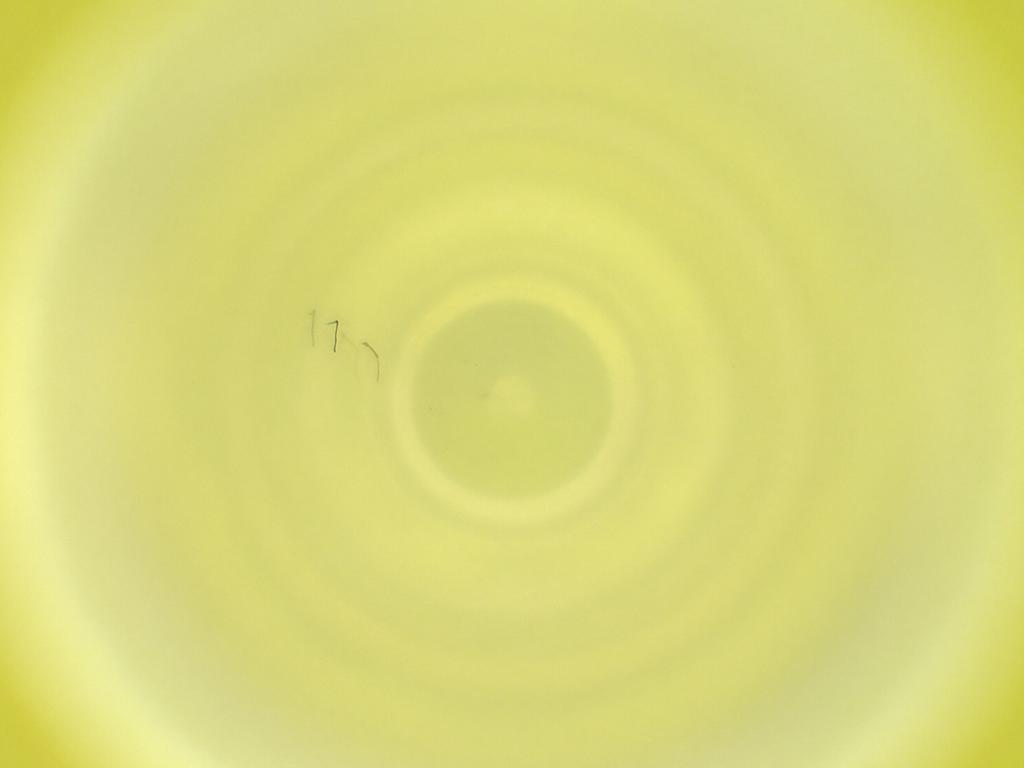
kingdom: Animalia
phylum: Arthropoda
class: Insecta
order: Diptera
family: Cecidomyiidae
